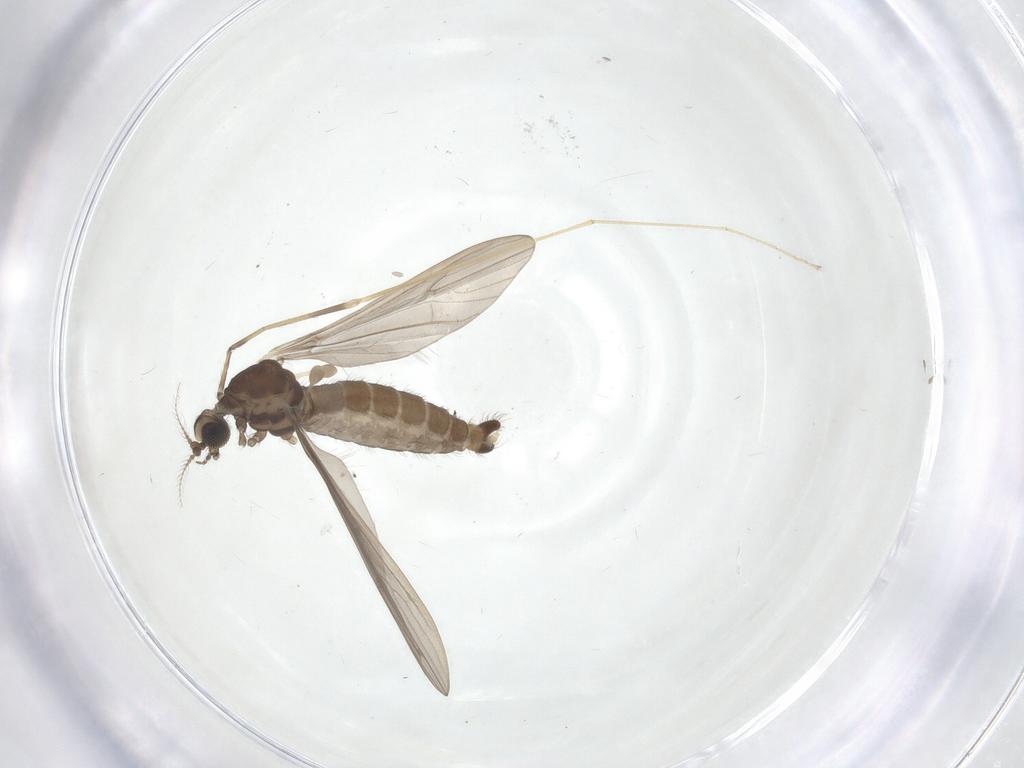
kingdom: Animalia
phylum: Arthropoda
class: Insecta
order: Diptera
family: Limoniidae
